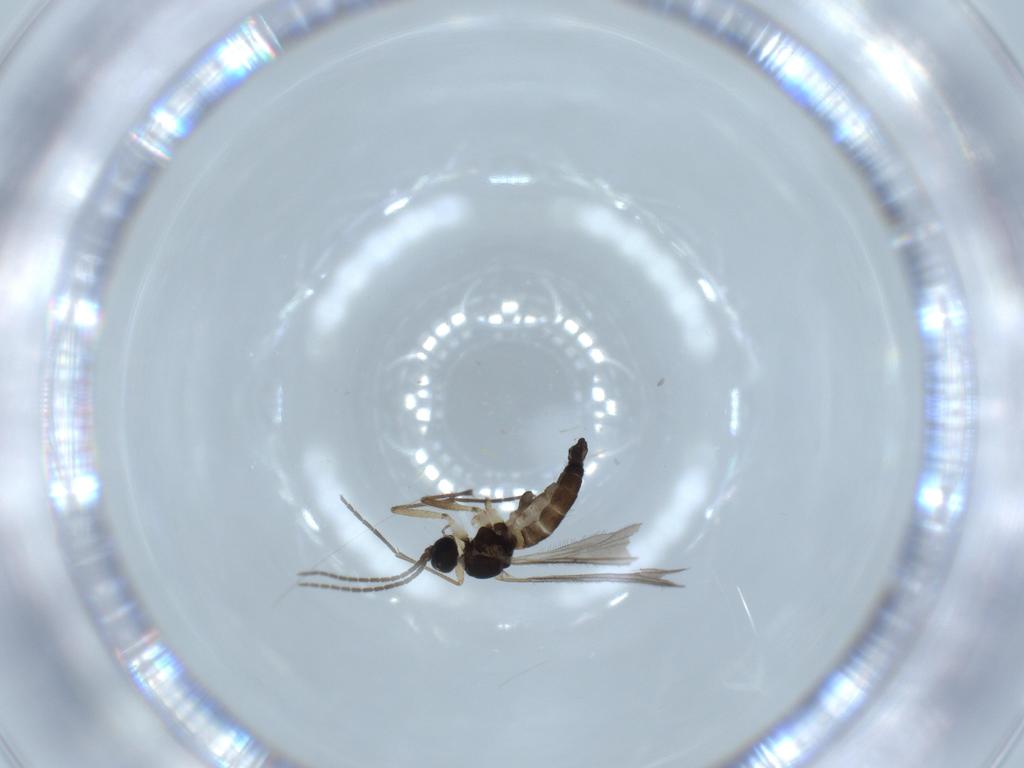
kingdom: Animalia
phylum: Arthropoda
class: Insecta
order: Diptera
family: Sciaridae
